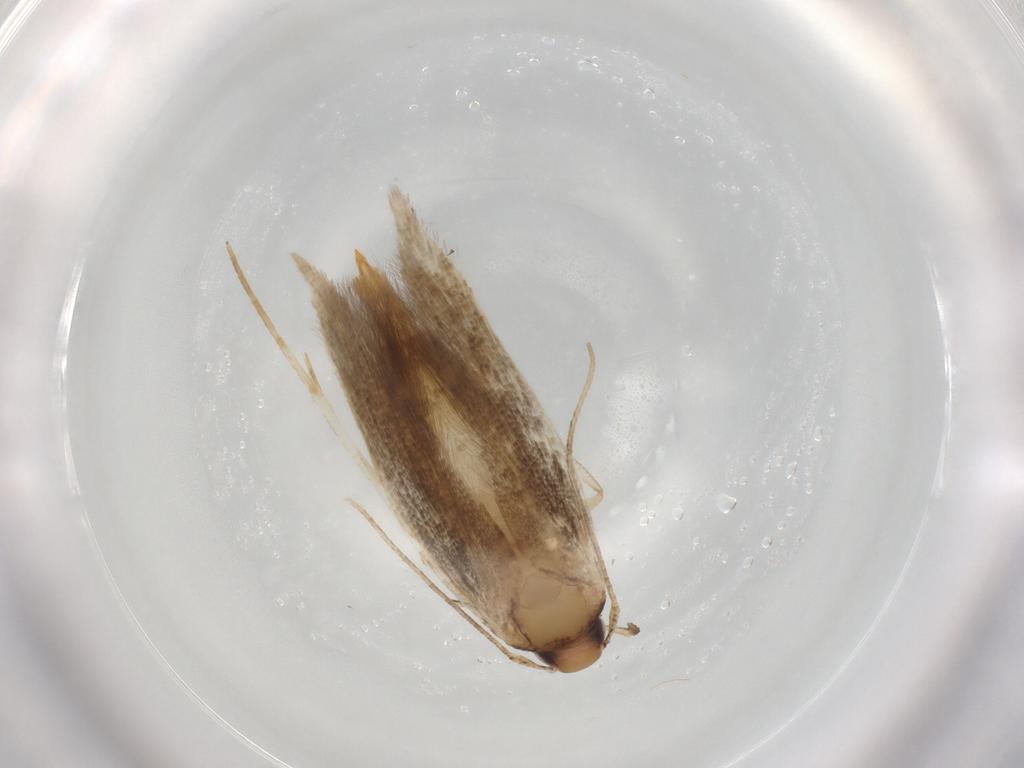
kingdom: Animalia
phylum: Arthropoda
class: Insecta
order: Lepidoptera
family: Cosmopterigidae
